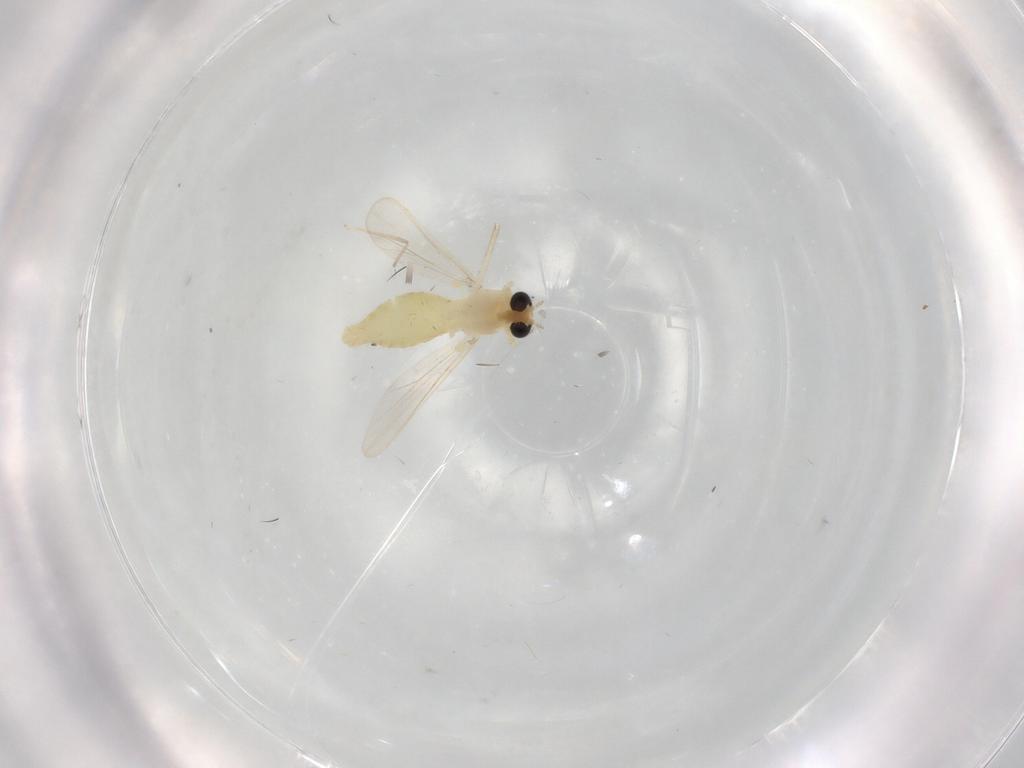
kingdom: Animalia
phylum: Arthropoda
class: Insecta
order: Diptera
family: Chironomidae
